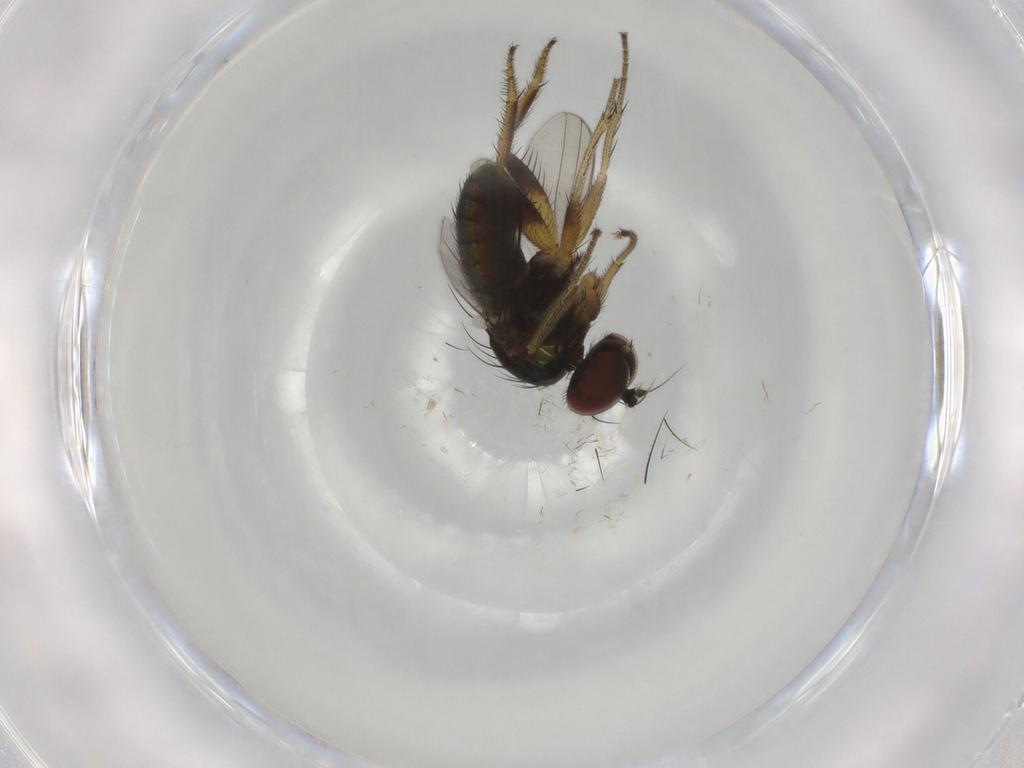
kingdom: Animalia
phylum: Arthropoda
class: Insecta
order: Diptera
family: Dolichopodidae
